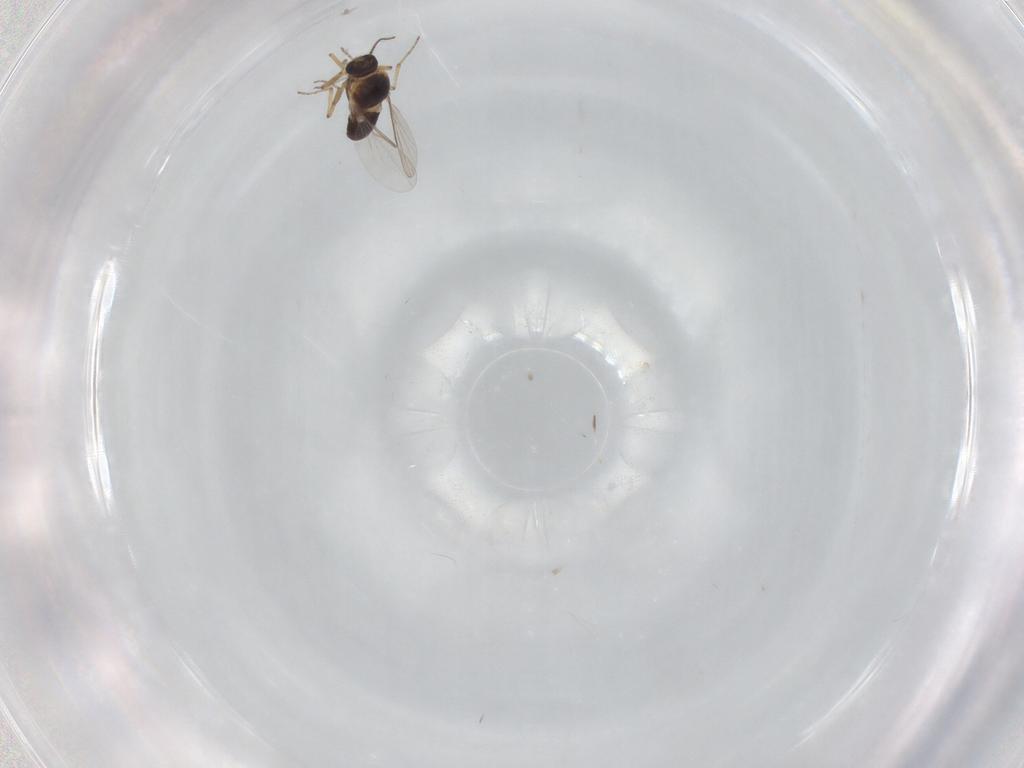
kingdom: Animalia
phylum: Arthropoda
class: Insecta
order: Diptera
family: Ceratopogonidae
